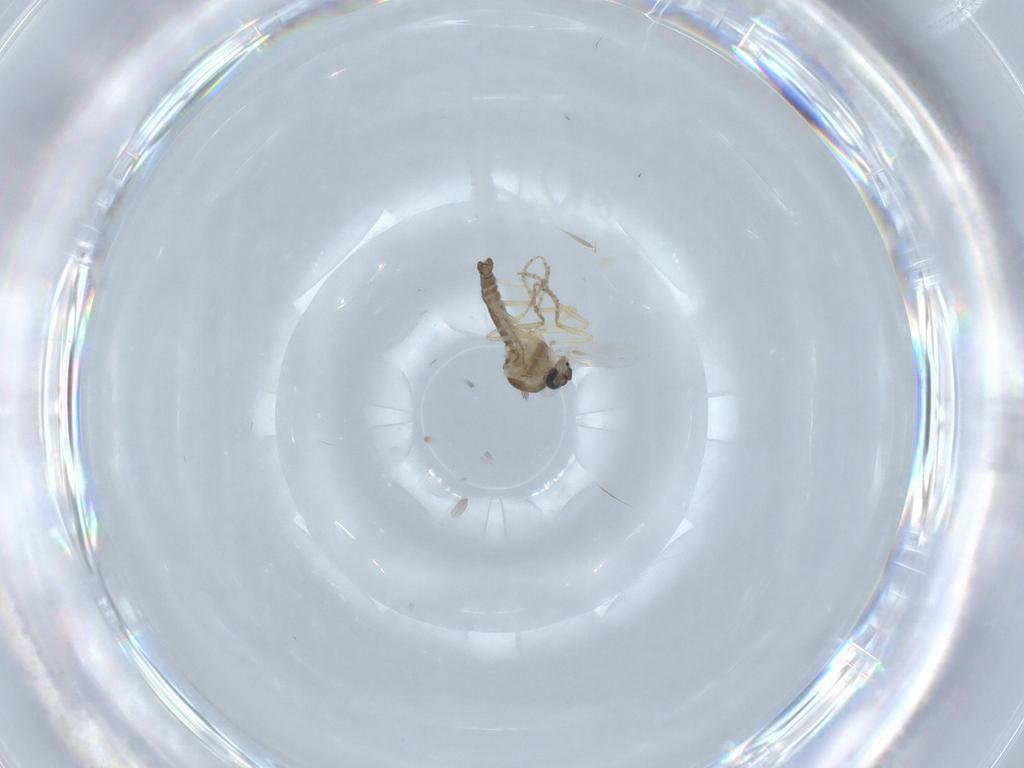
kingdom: Animalia
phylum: Arthropoda
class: Insecta
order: Diptera
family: Ceratopogonidae
